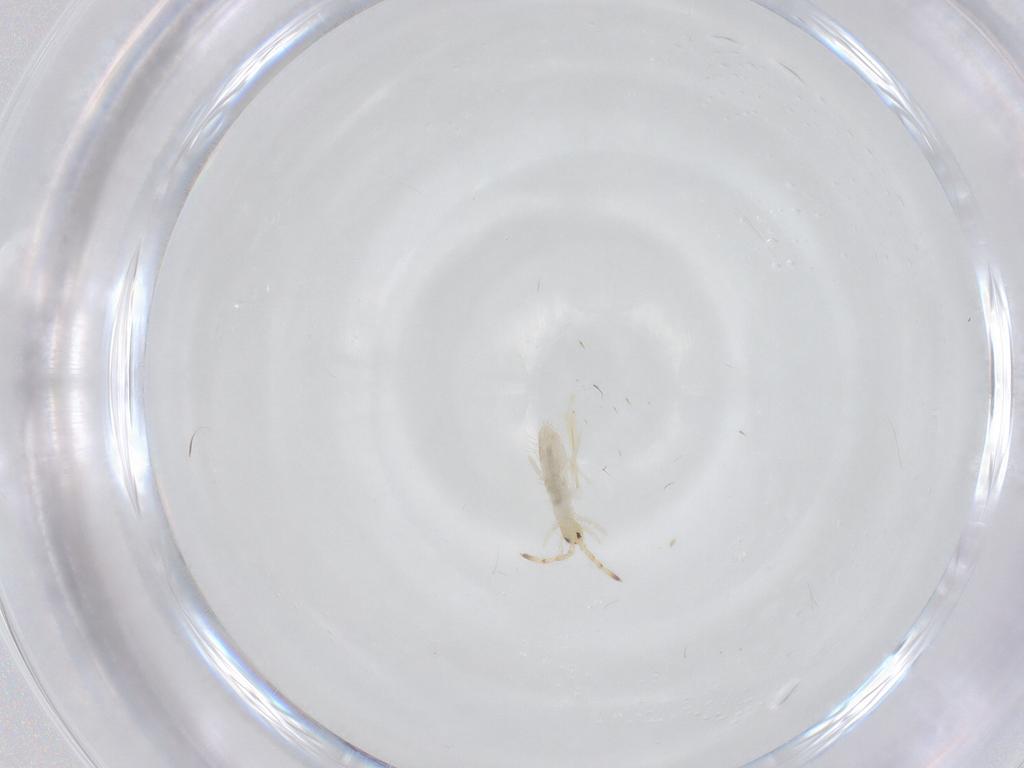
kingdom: Animalia
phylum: Arthropoda
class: Collembola
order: Entomobryomorpha
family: Entomobryidae
